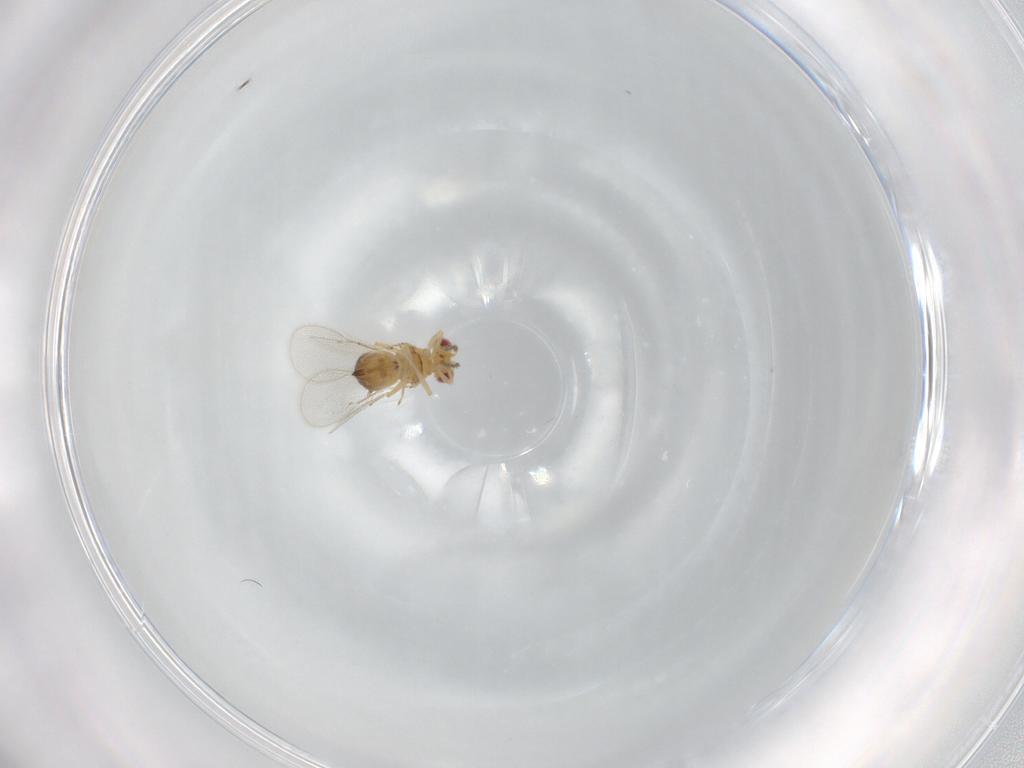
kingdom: Animalia
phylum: Arthropoda
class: Insecta
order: Hymenoptera
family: Eulophidae
